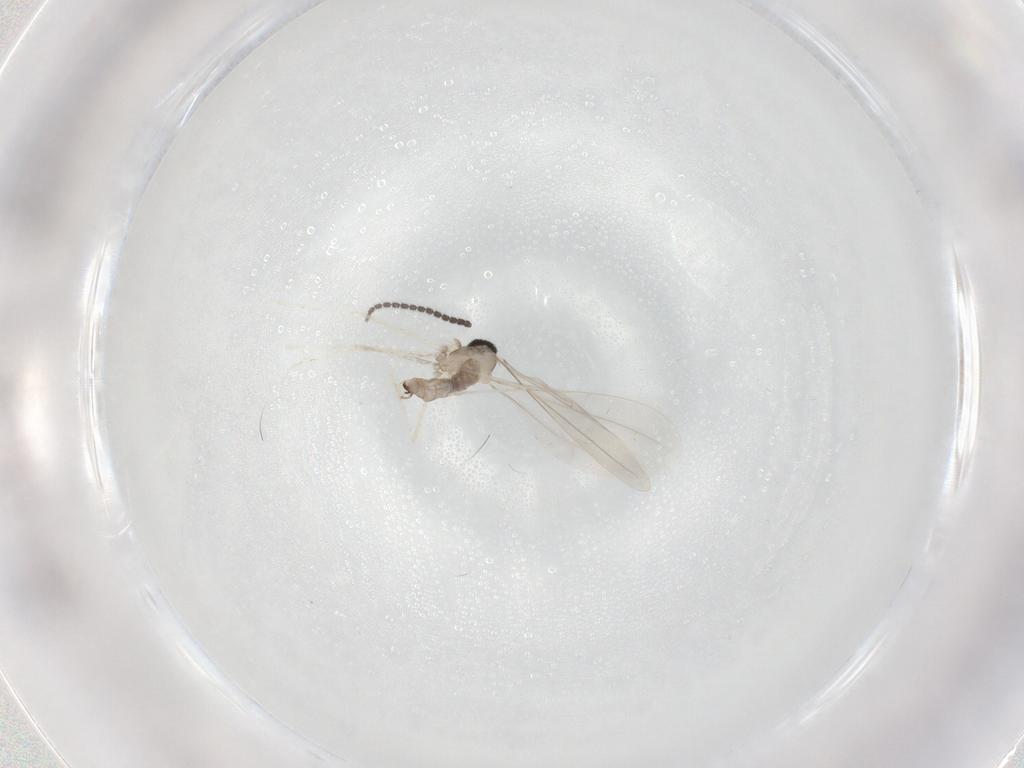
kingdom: Animalia
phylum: Arthropoda
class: Insecta
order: Diptera
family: Cecidomyiidae
